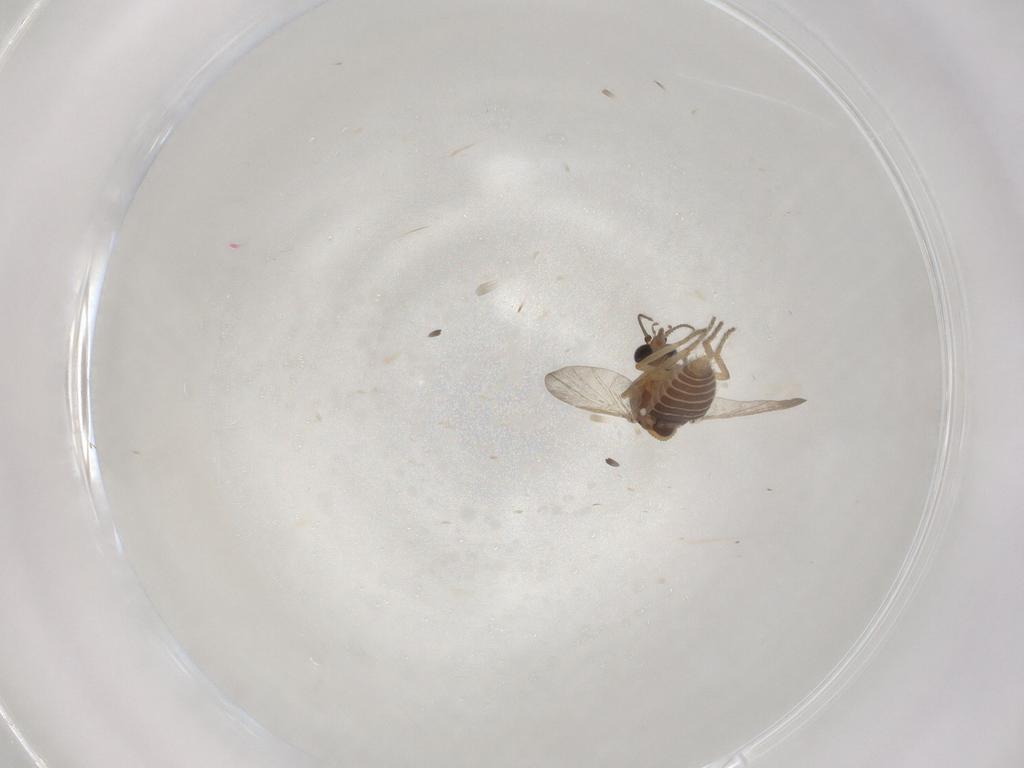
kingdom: Animalia
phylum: Arthropoda
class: Insecta
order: Diptera
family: Ceratopogonidae
